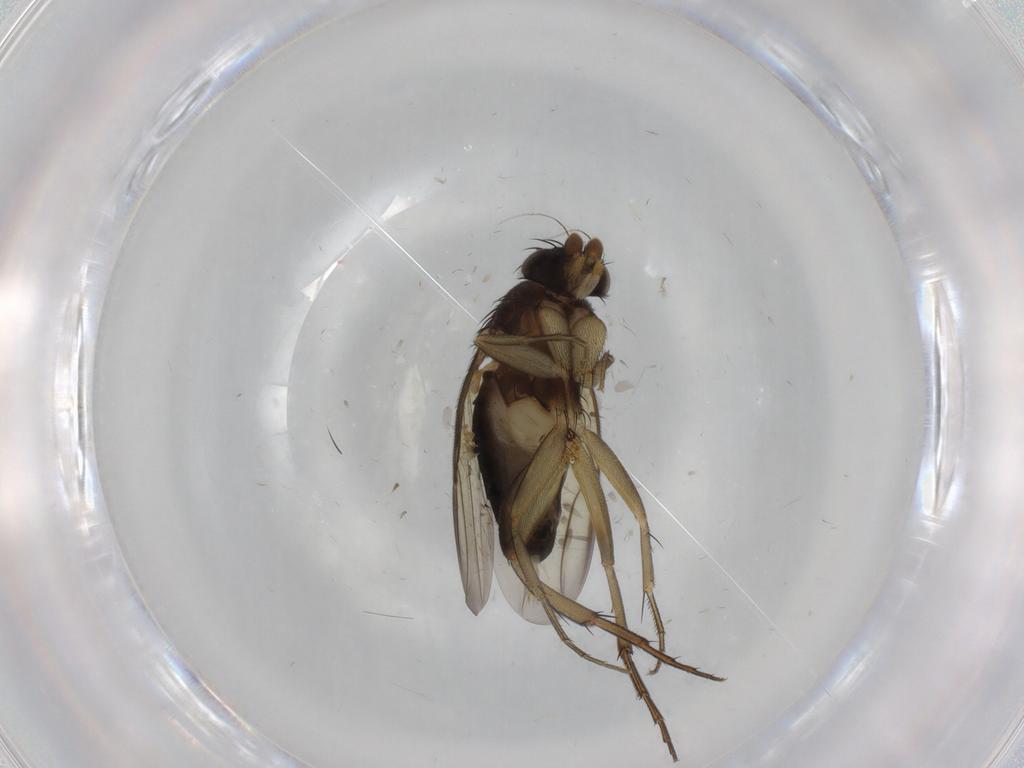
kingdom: Animalia
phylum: Arthropoda
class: Insecta
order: Diptera
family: Phoridae
